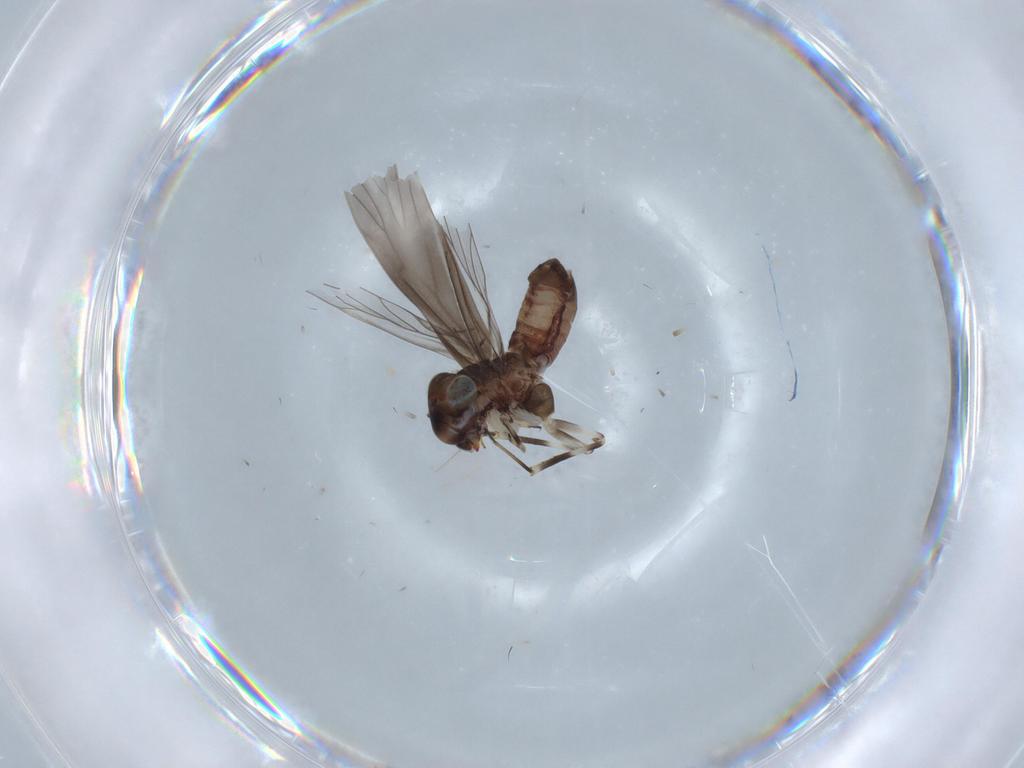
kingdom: Animalia
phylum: Arthropoda
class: Insecta
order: Psocodea
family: Amphientomidae
